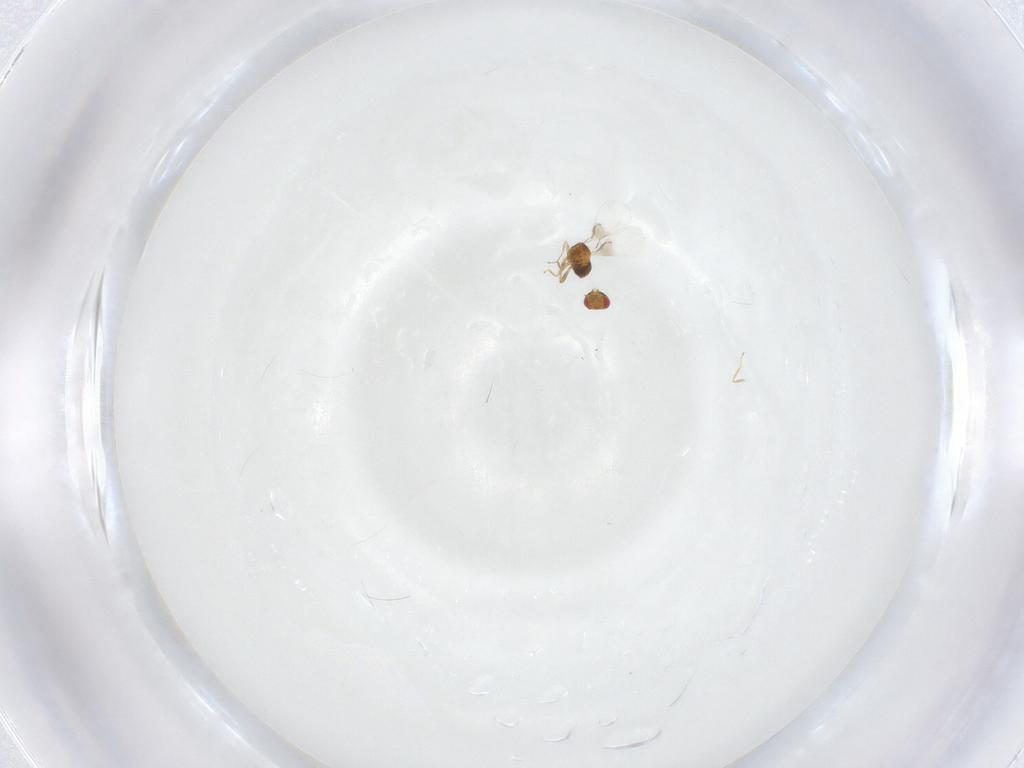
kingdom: Animalia
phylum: Arthropoda
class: Insecta
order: Hymenoptera
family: Trichogrammatidae
